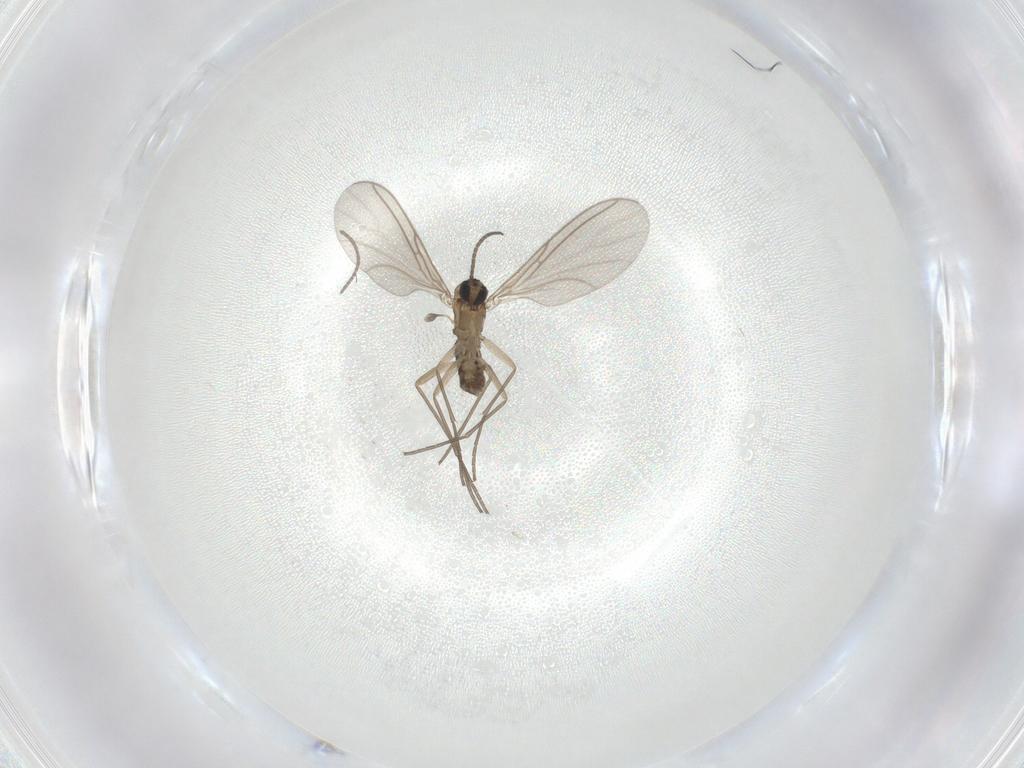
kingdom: Animalia
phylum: Arthropoda
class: Insecta
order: Diptera
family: Sciaridae
